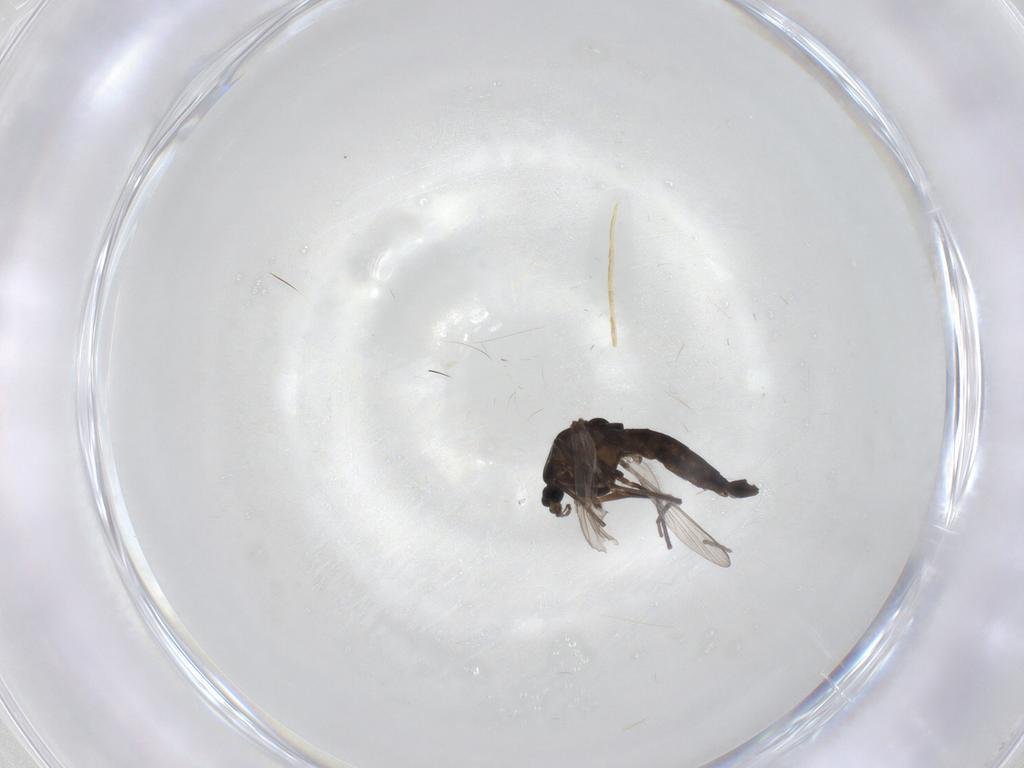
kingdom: Animalia
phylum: Arthropoda
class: Insecta
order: Diptera
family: Chironomidae
